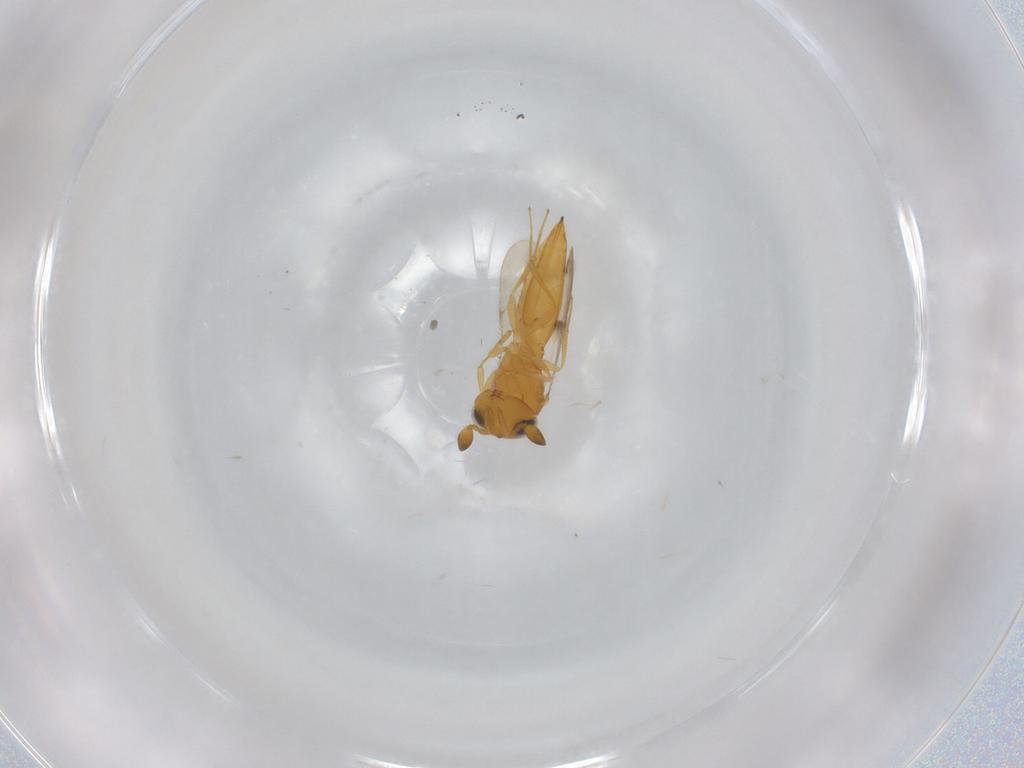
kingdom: Animalia
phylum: Arthropoda
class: Insecta
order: Hymenoptera
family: Scelionidae
